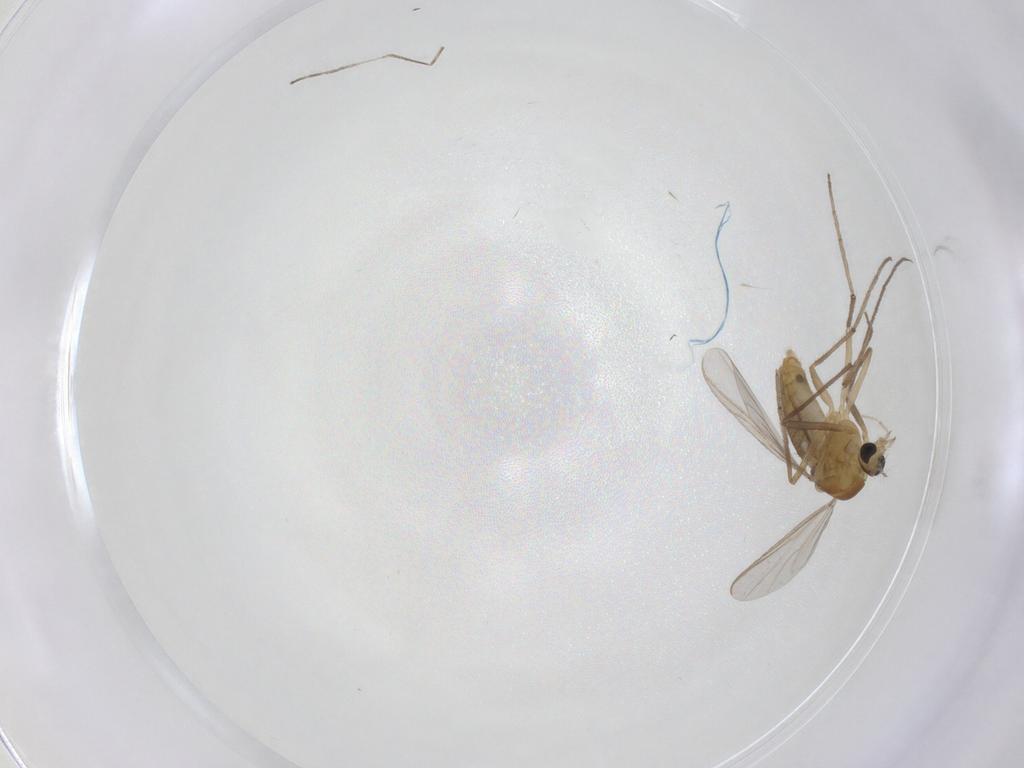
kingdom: Animalia
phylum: Arthropoda
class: Insecta
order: Diptera
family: Chironomidae
